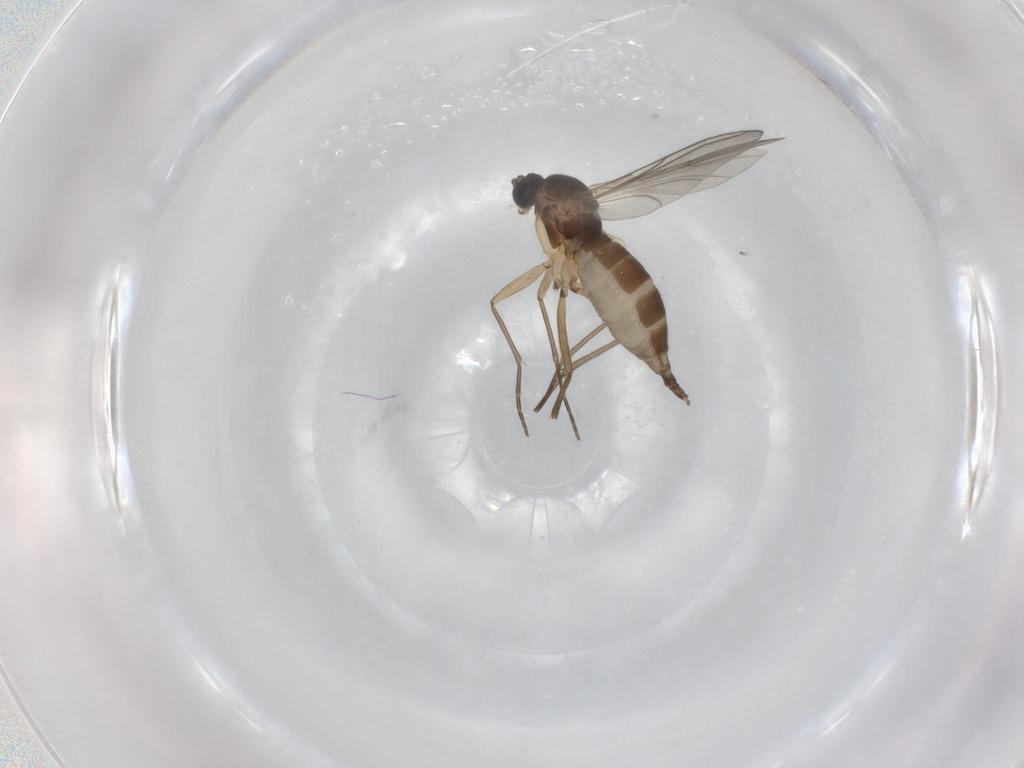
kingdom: Animalia
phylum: Arthropoda
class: Insecta
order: Diptera
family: Sciaridae
